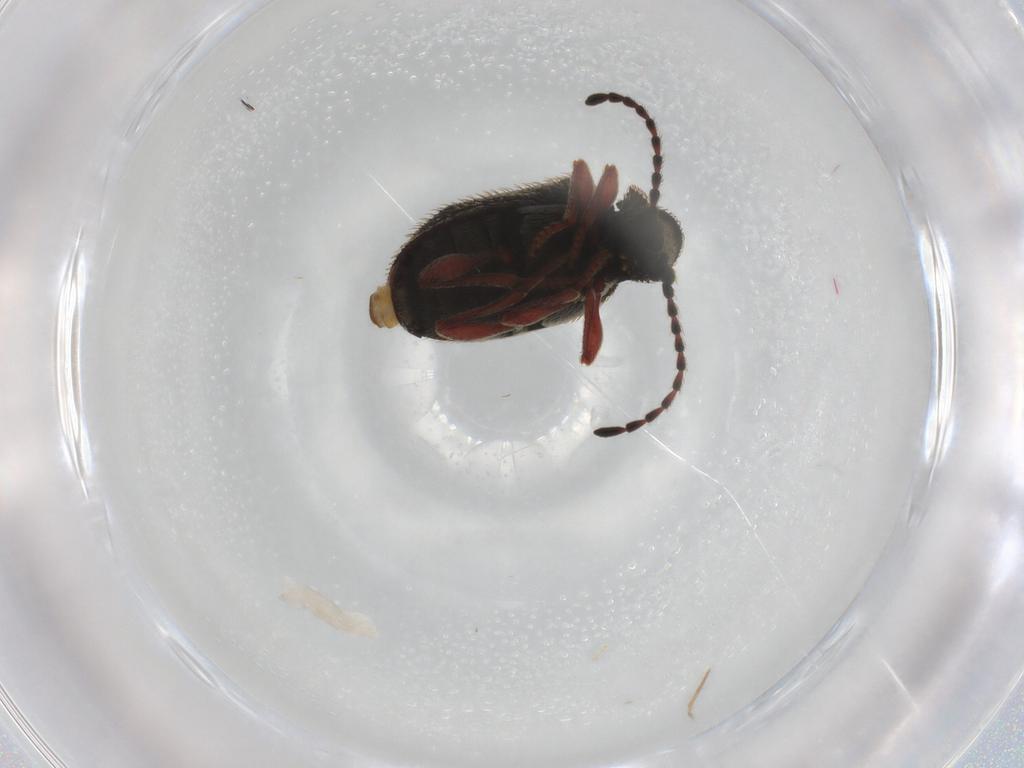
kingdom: Animalia
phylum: Arthropoda
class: Insecta
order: Coleoptera
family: Ptinidae
